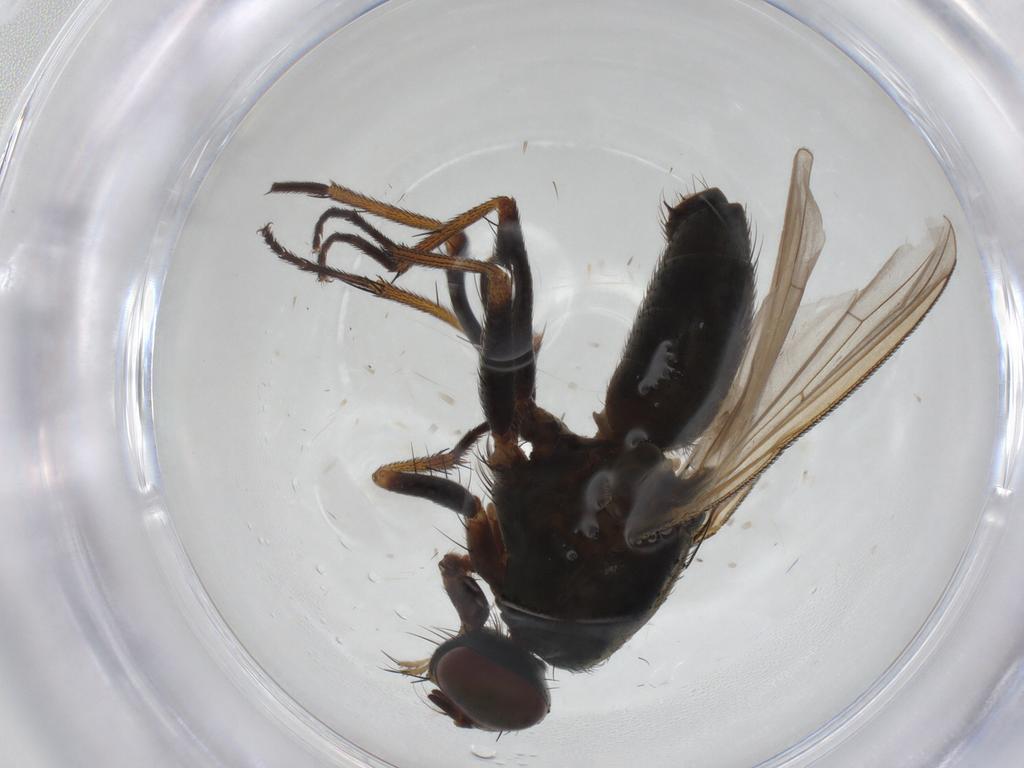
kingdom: Animalia
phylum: Arthropoda
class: Insecta
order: Diptera
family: Muscidae
